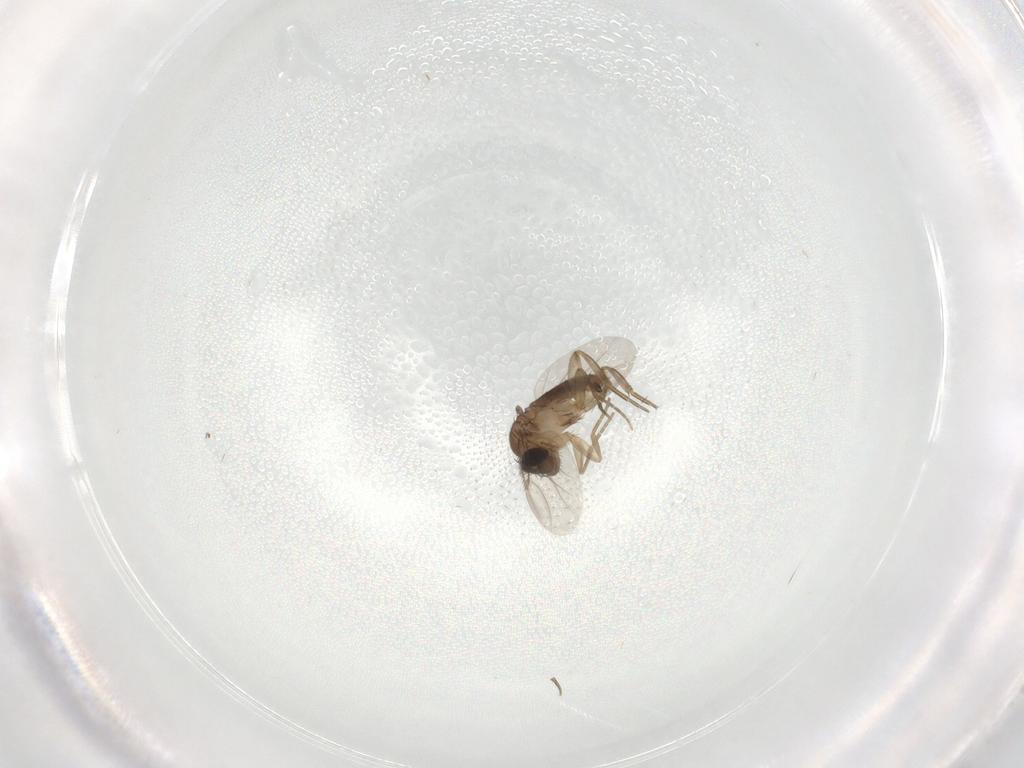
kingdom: Animalia
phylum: Arthropoda
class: Insecta
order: Diptera
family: Phoridae
